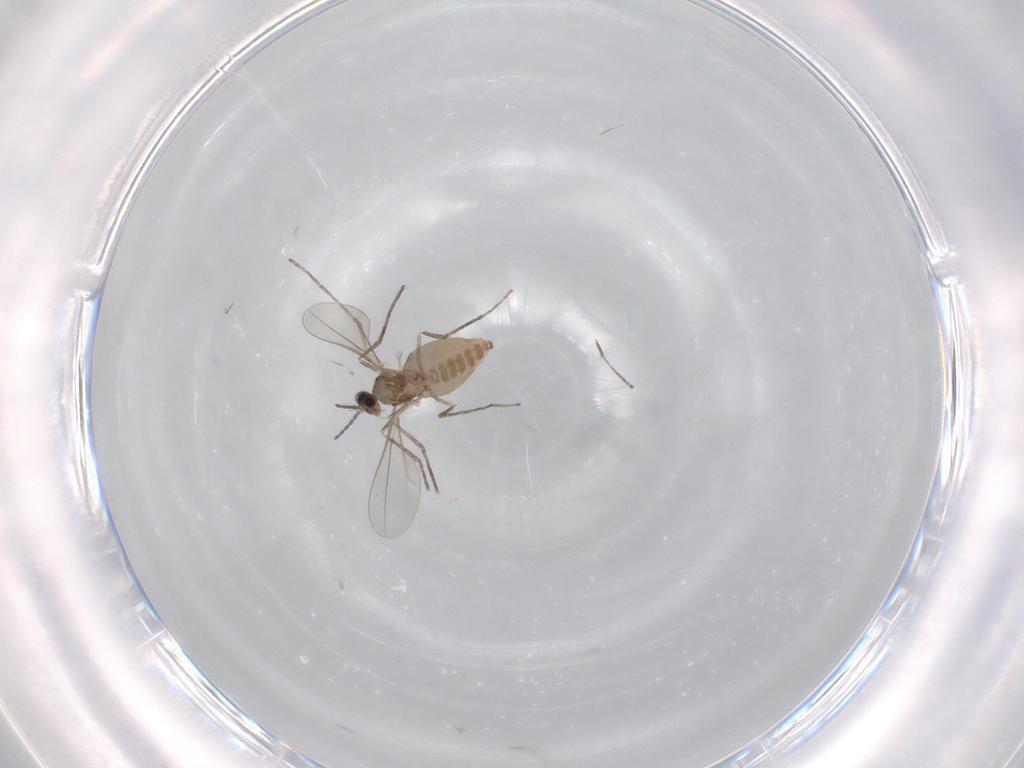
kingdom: Animalia
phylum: Arthropoda
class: Insecta
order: Diptera
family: Cecidomyiidae
